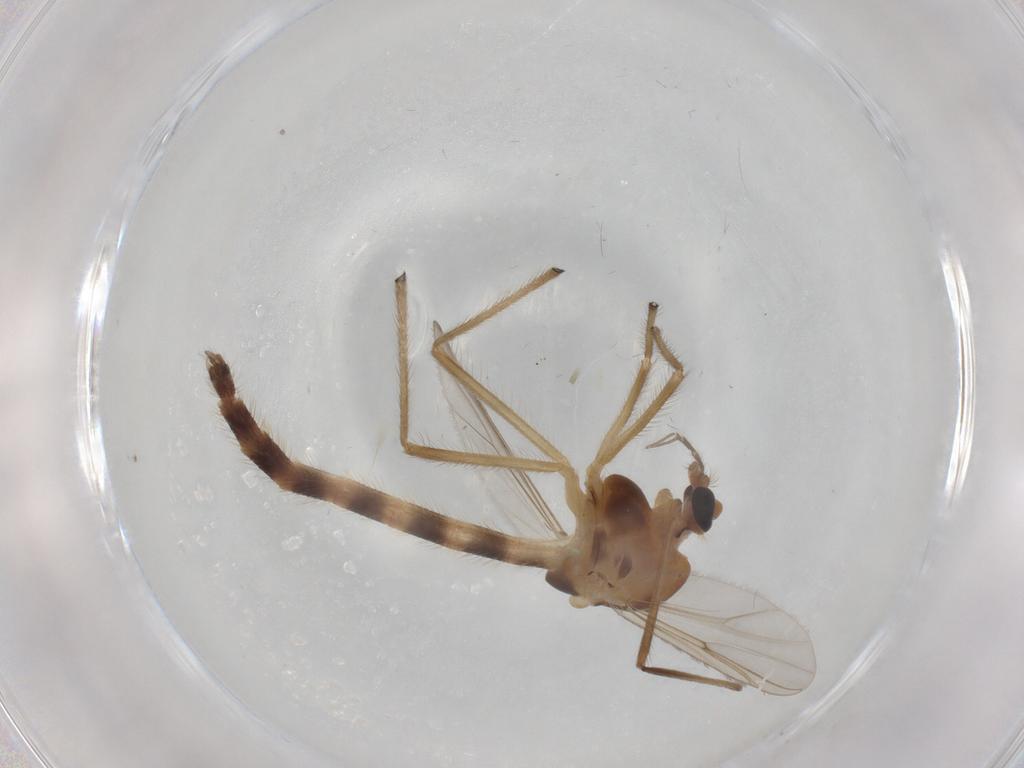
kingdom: Animalia
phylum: Arthropoda
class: Insecta
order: Diptera
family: Chironomidae
